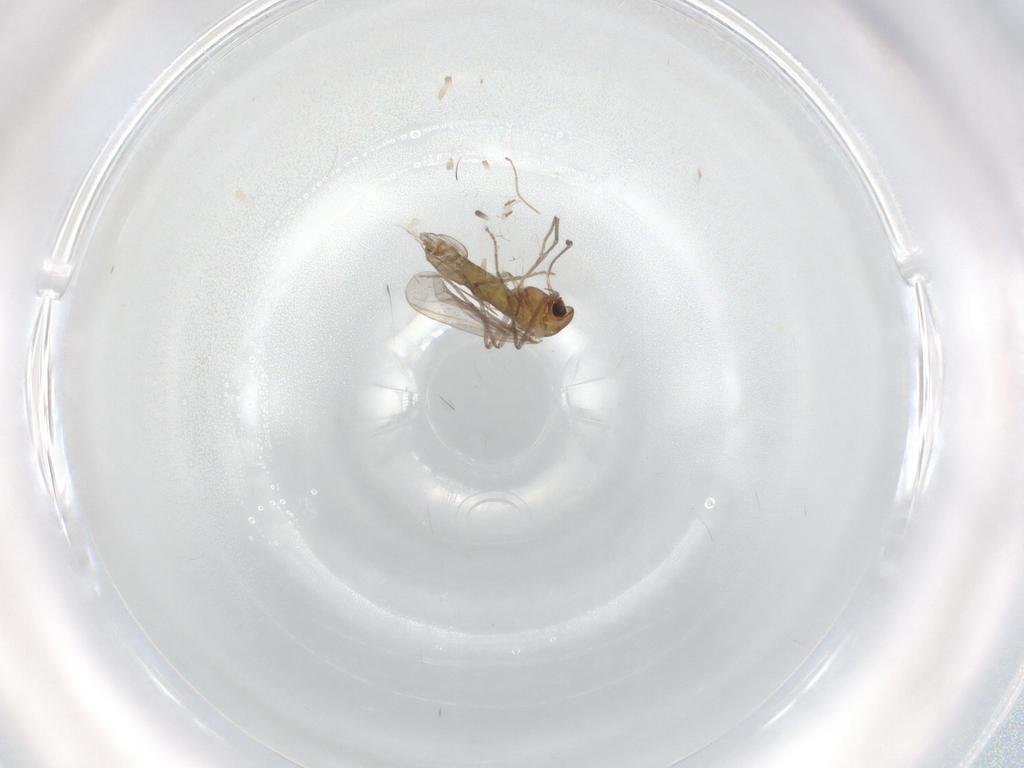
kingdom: Animalia
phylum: Arthropoda
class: Insecta
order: Diptera
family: Chironomidae
